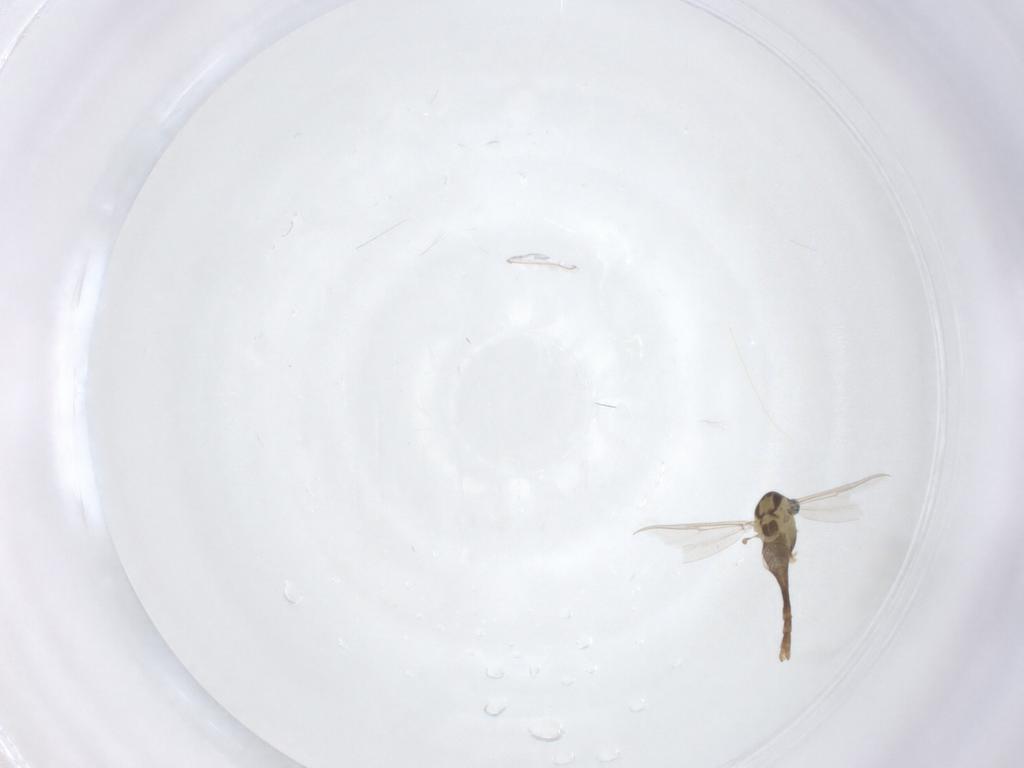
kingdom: Animalia
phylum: Arthropoda
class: Insecta
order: Diptera
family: Chironomidae
